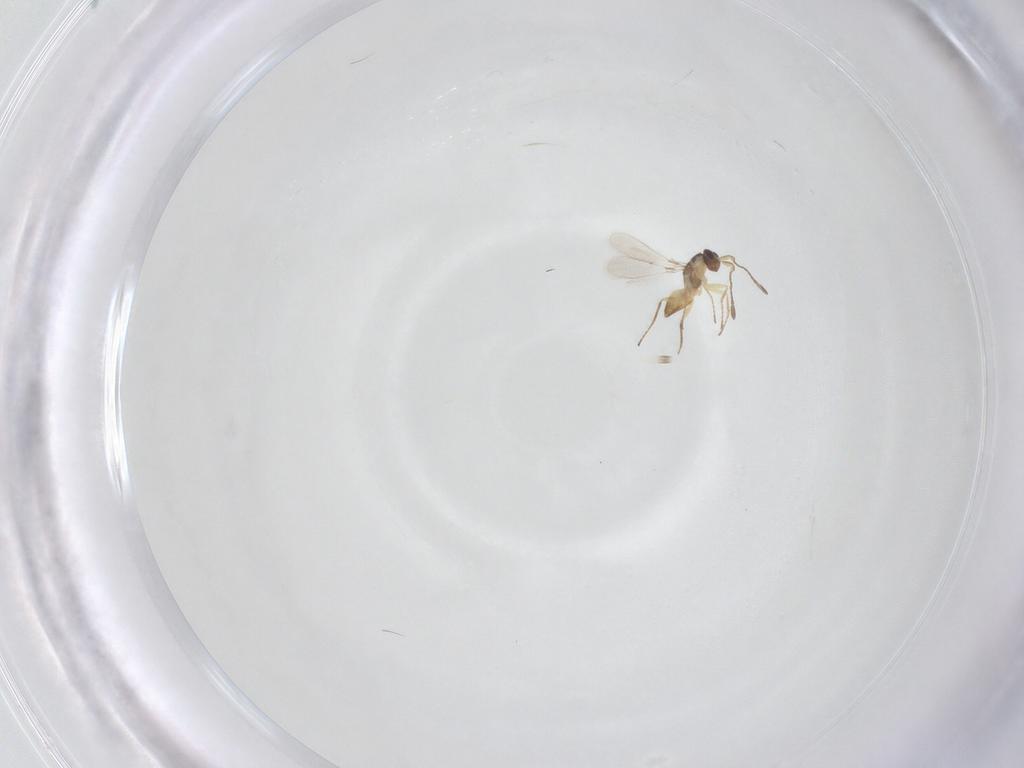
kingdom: Animalia
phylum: Arthropoda
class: Insecta
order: Hymenoptera
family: Mymaridae
